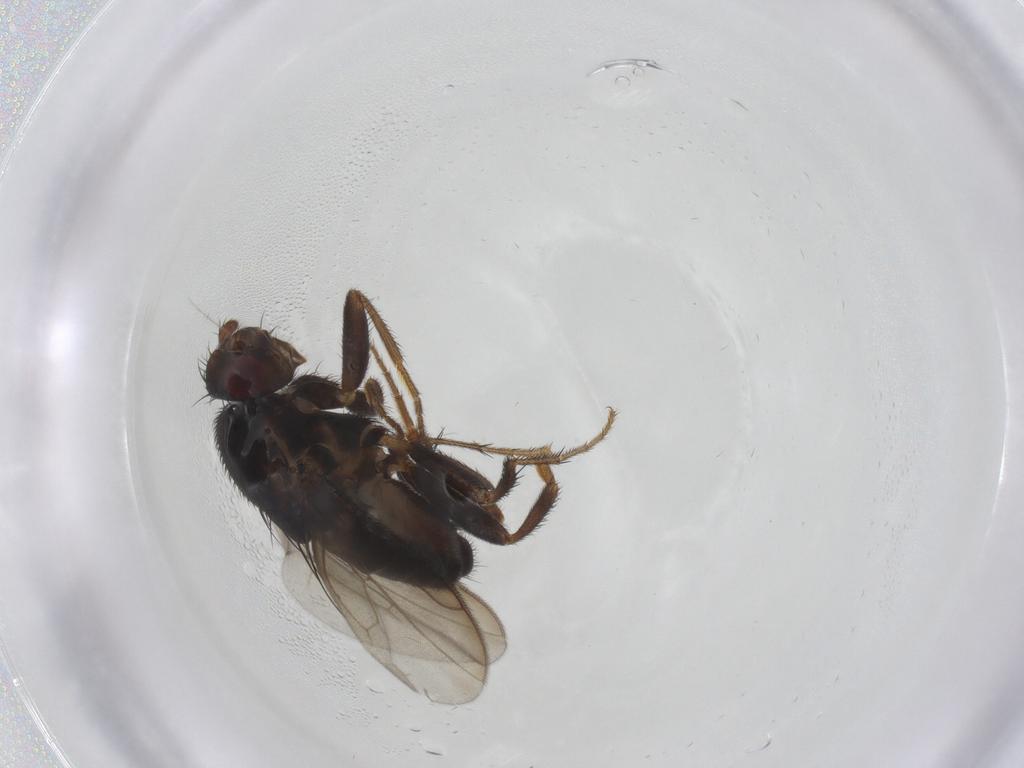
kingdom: Animalia
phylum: Arthropoda
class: Insecta
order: Diptera
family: Sphaeroceridae
